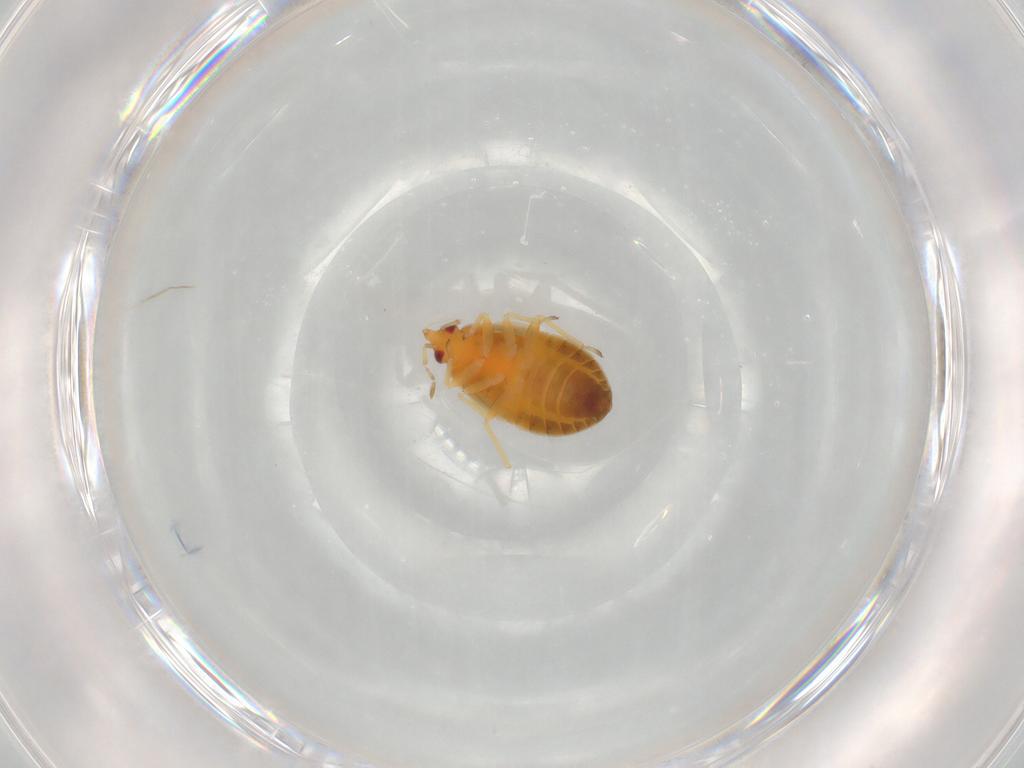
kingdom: Animalia
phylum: Arthropoda
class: Insecta
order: Hemiptera
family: Anthocoridae
